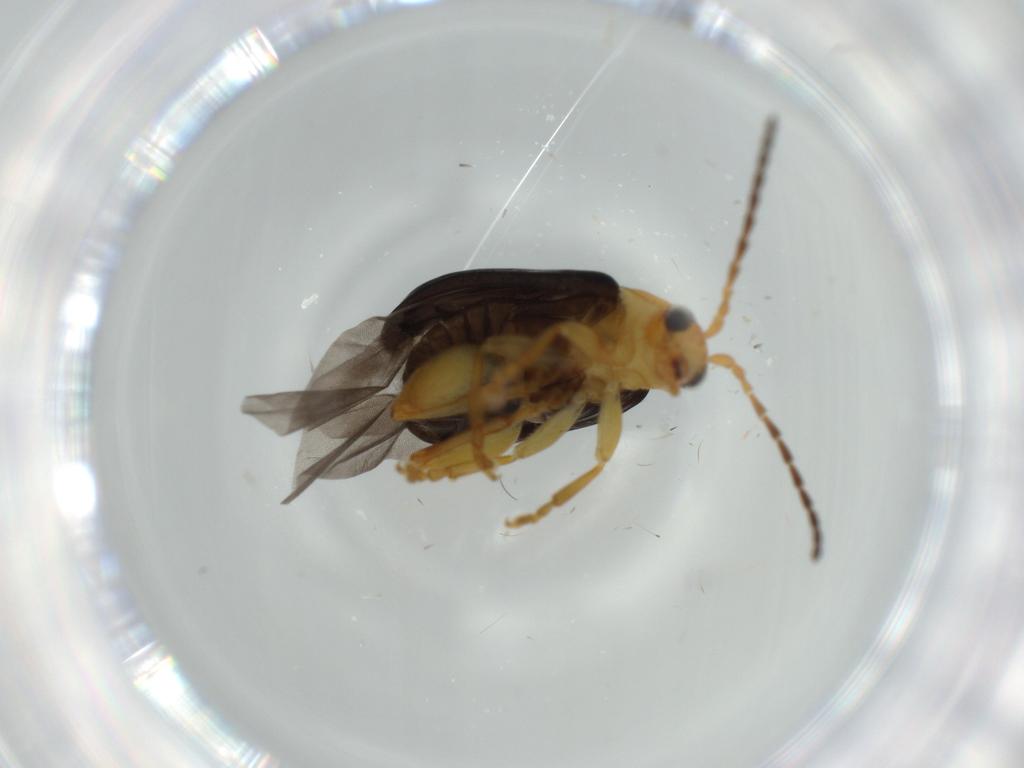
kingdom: Animalia
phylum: Arthropoda
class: Insecta
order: Coleoptera
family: Chrysomelidae
